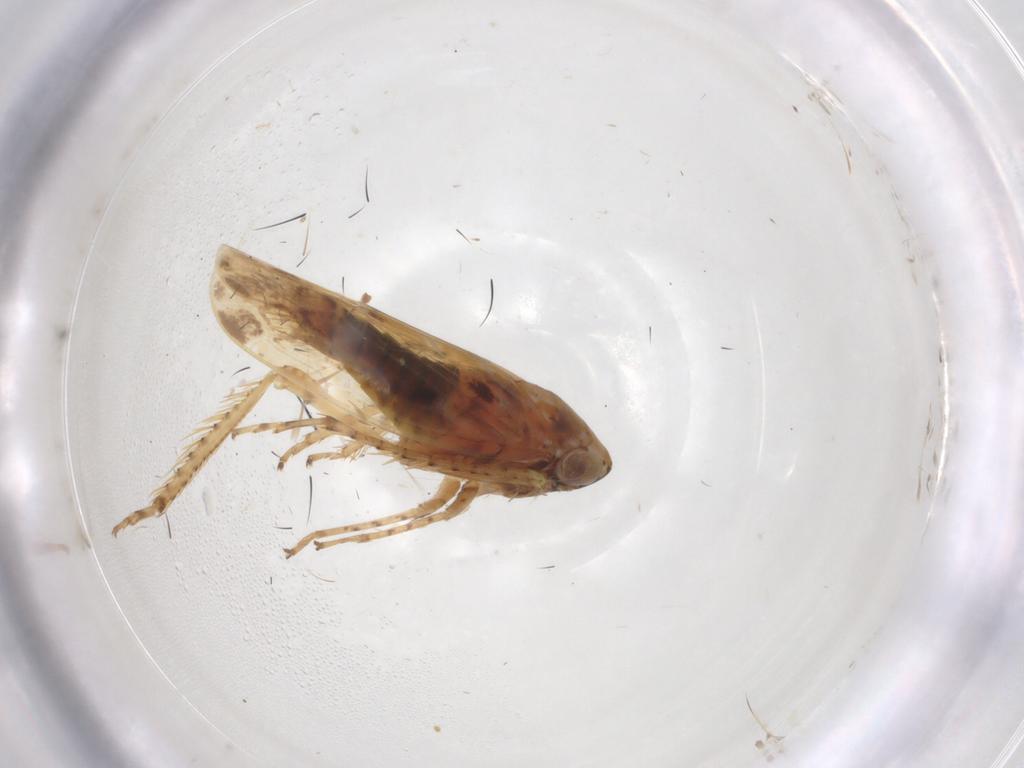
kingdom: Animalia
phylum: Arthropoda
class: Insecta
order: Hemiptera
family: Cicadellidae
